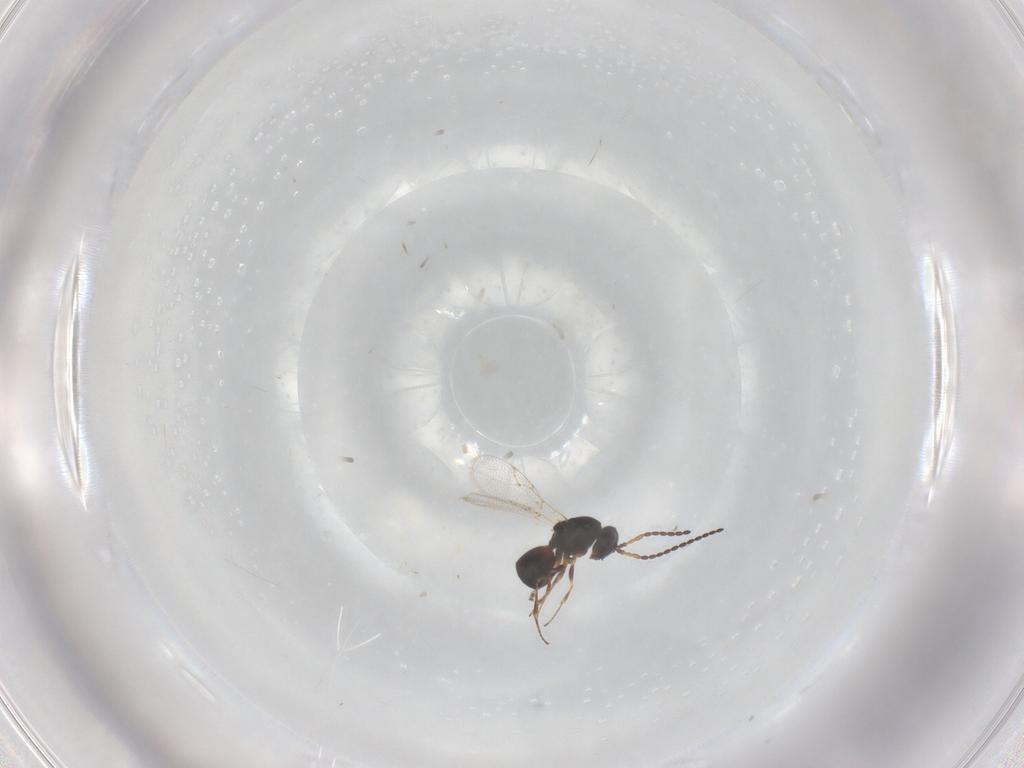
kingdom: Animalia
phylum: Arthropoda
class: Insecta
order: Hymenoptera
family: Figitidae
